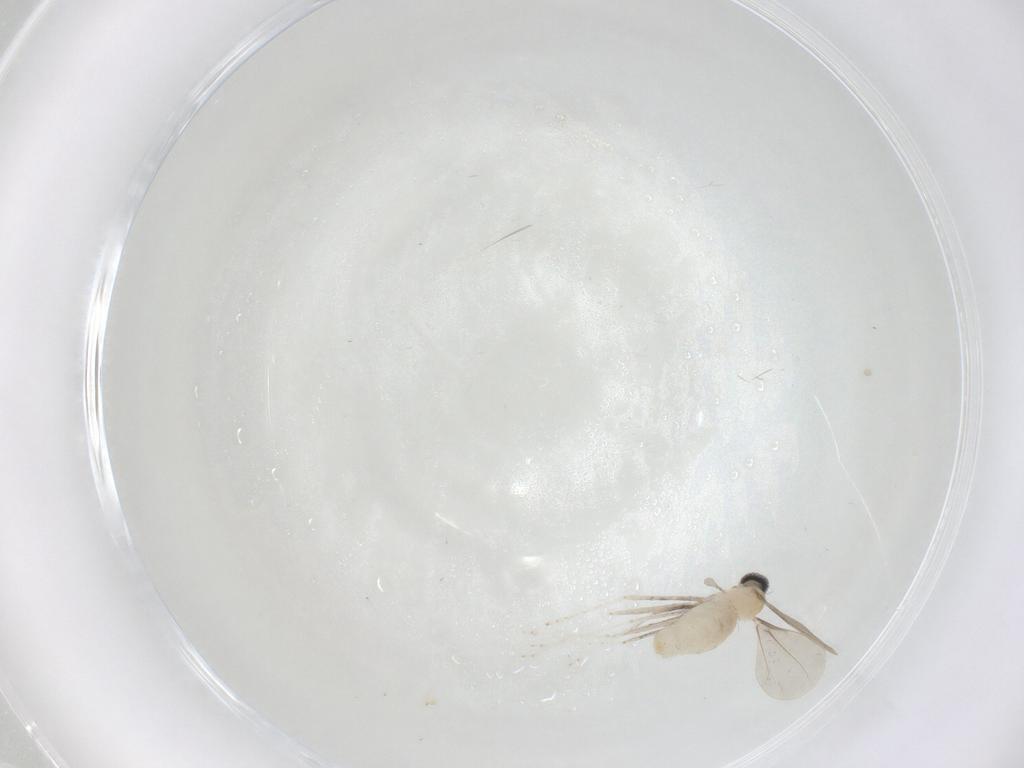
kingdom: Animalia
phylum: Arthropoda
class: Insecta
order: Diptera
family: Cecidomyiidae
